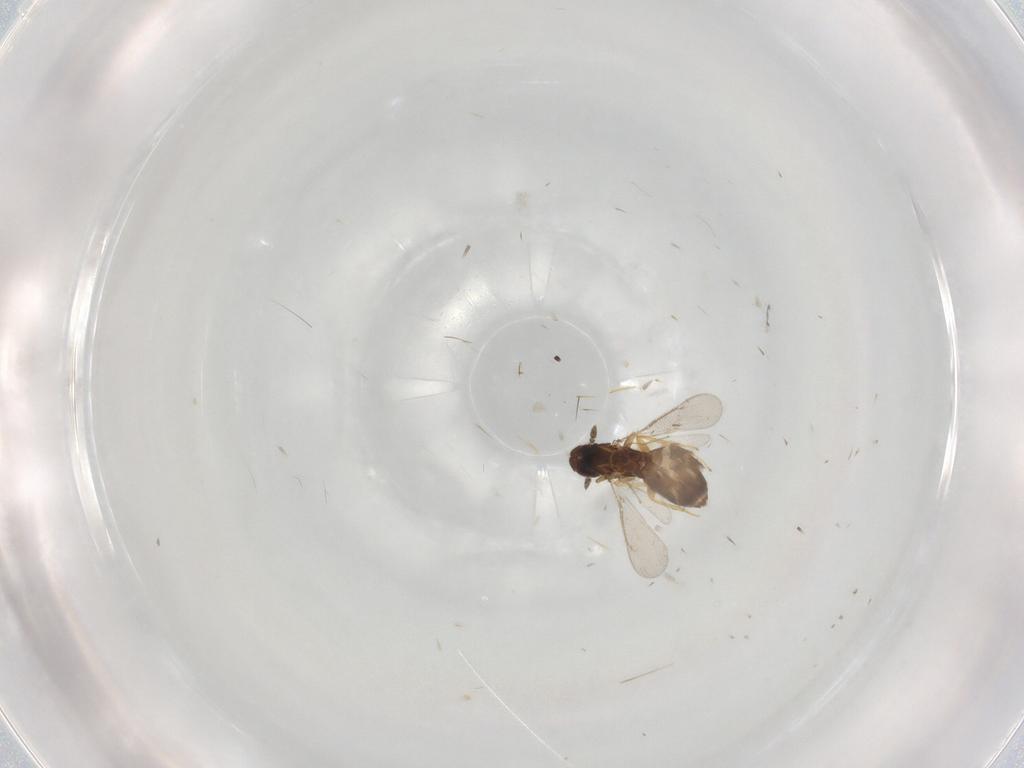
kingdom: Animalia
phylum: Arthropoda
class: Insecta
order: Hymenoptera
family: Eulophidae
